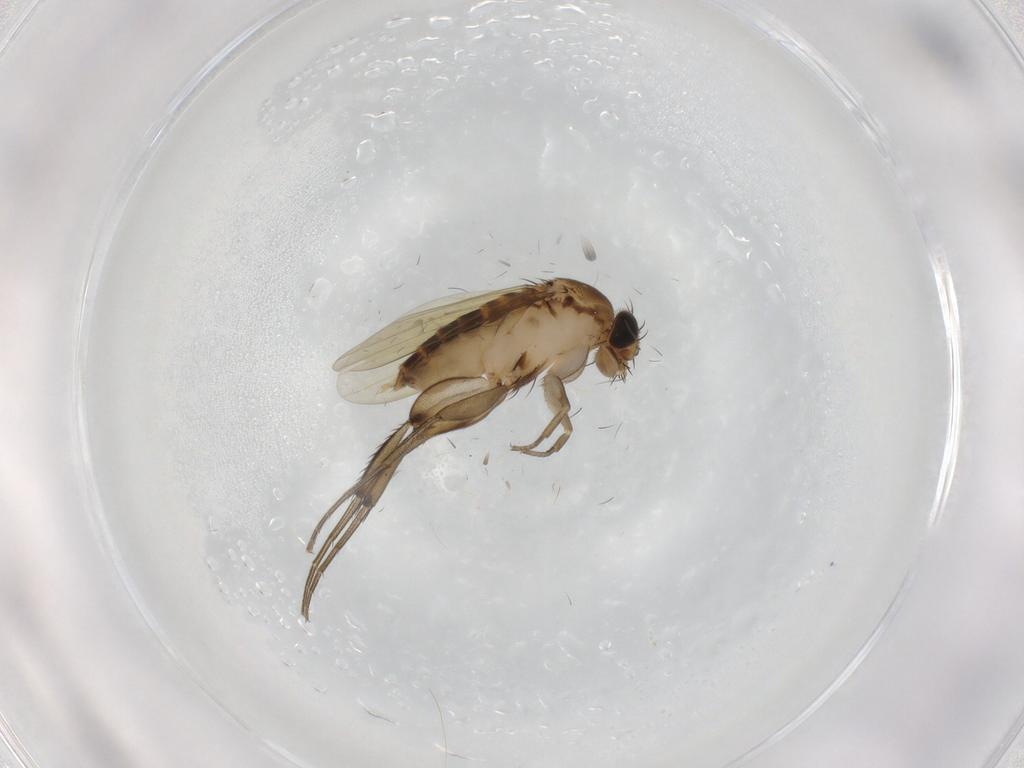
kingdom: Animalia
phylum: Arthropoda
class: Insecta
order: Diptera
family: Phoridae
